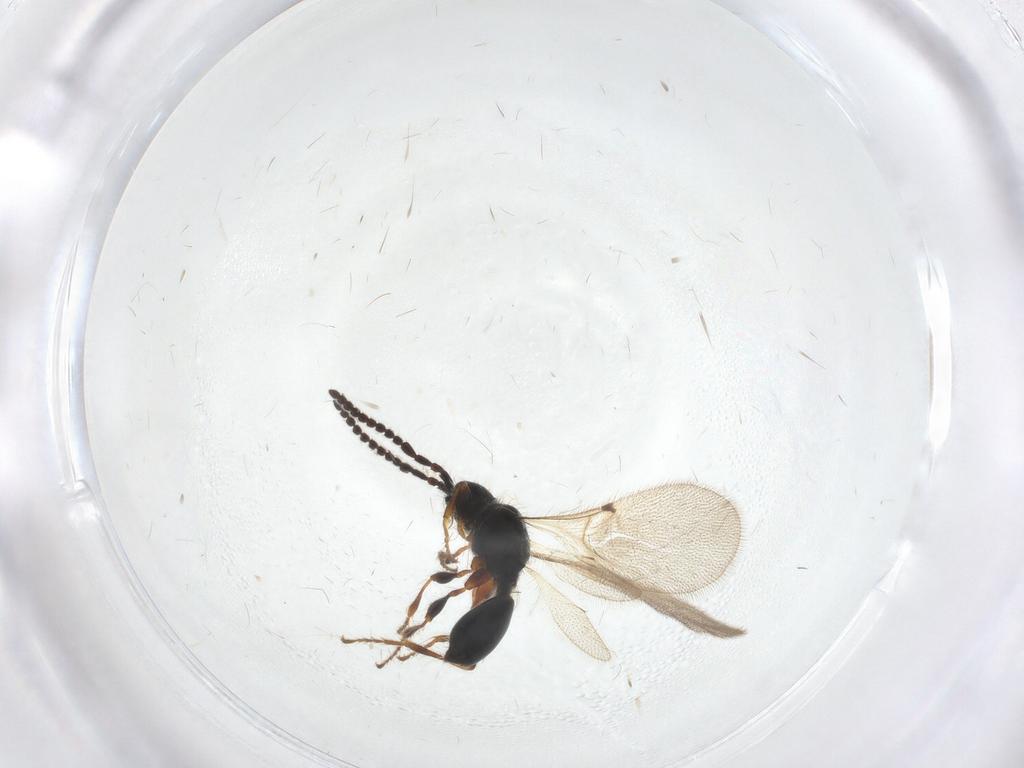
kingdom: Animalia
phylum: Arthropoda
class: Insecta
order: Hymenoptera
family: Diapriidae
